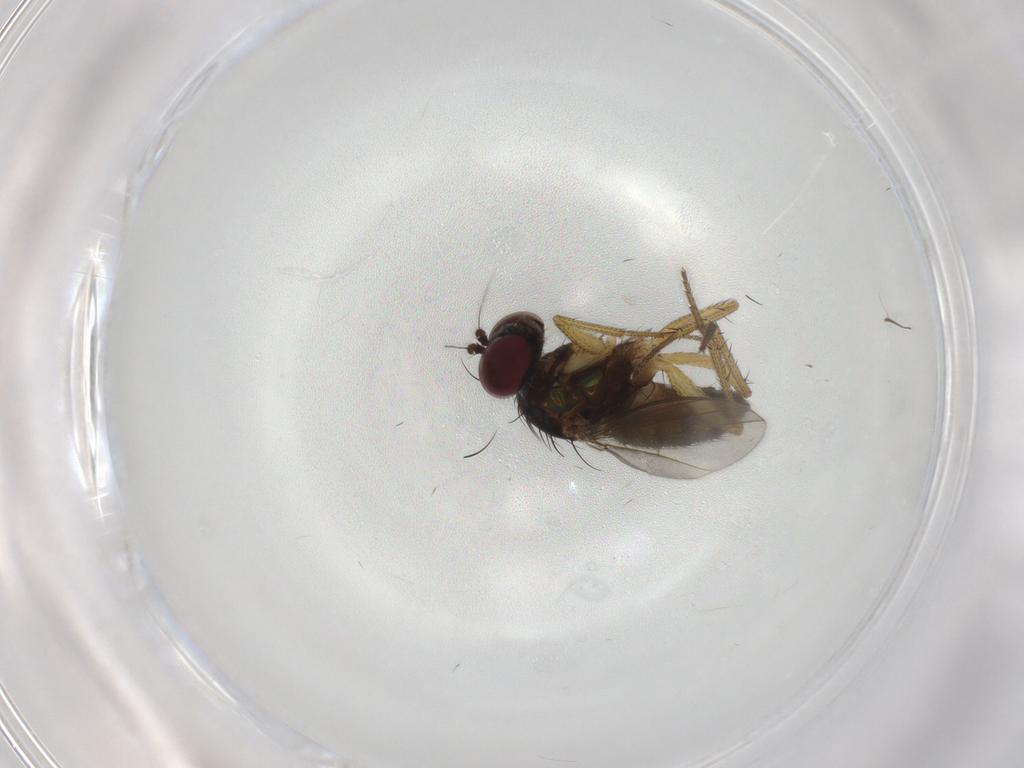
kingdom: Animalia
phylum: Arthropoda
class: Insecta
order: Diptera
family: Dolichopodidae
